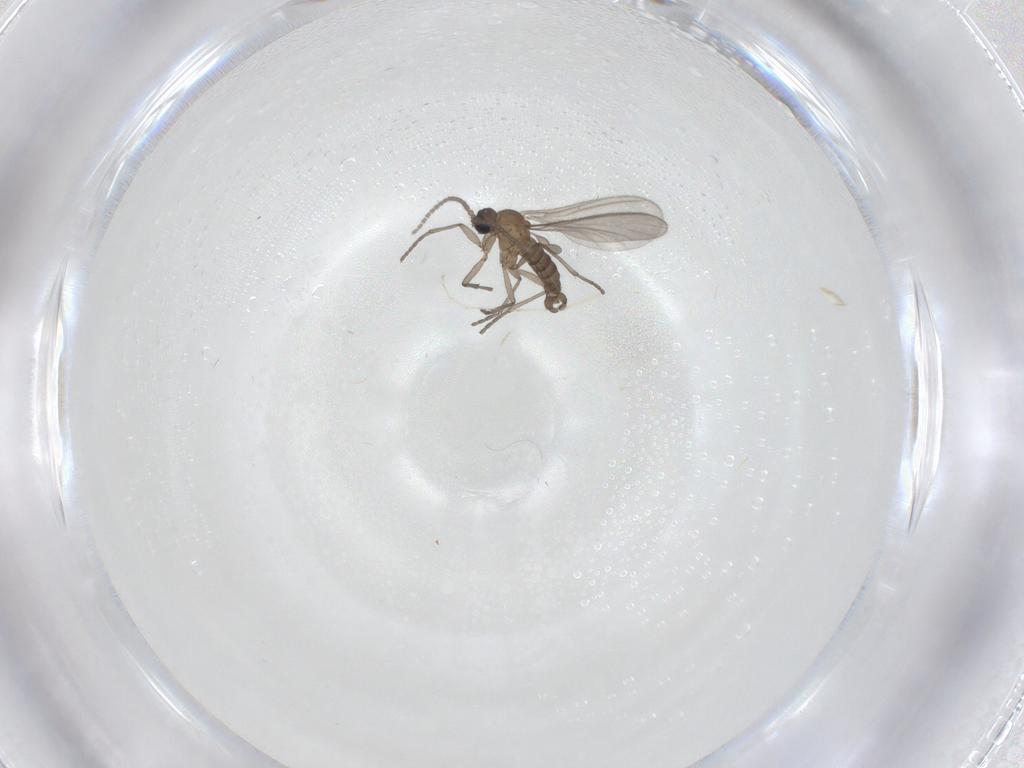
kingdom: Animalia
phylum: Arthropoda
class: Insecta
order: Diptera
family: Sciaridae
